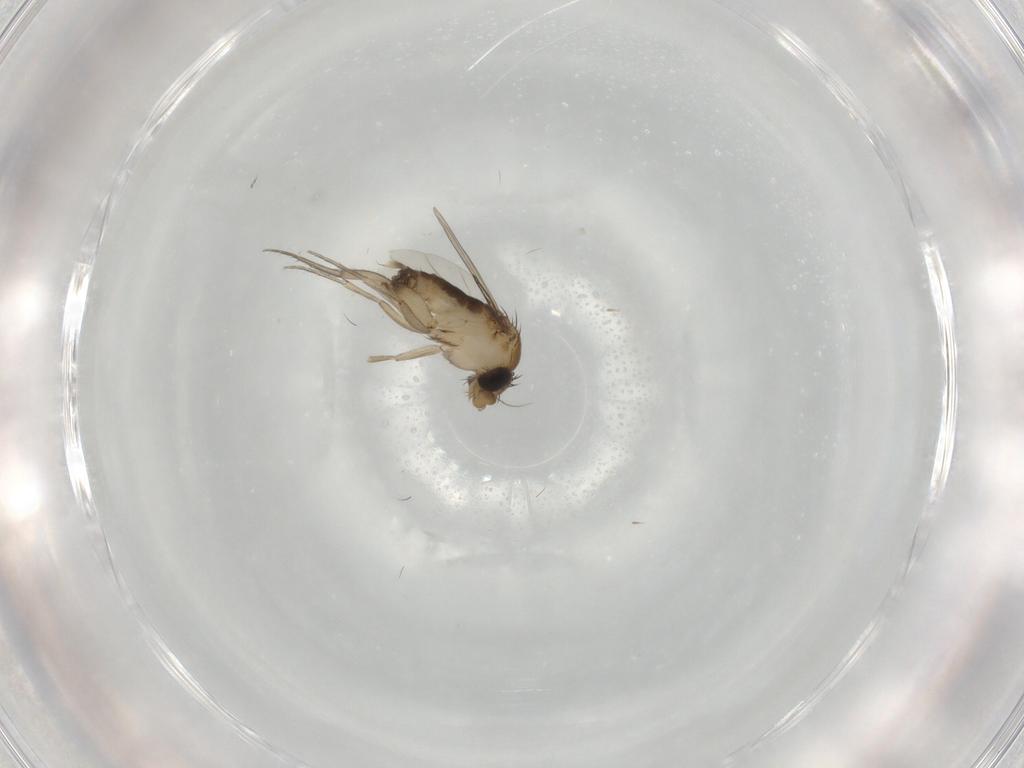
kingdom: Animalia
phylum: Arthropoda
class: Insecta
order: Diptera
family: Phoridae
